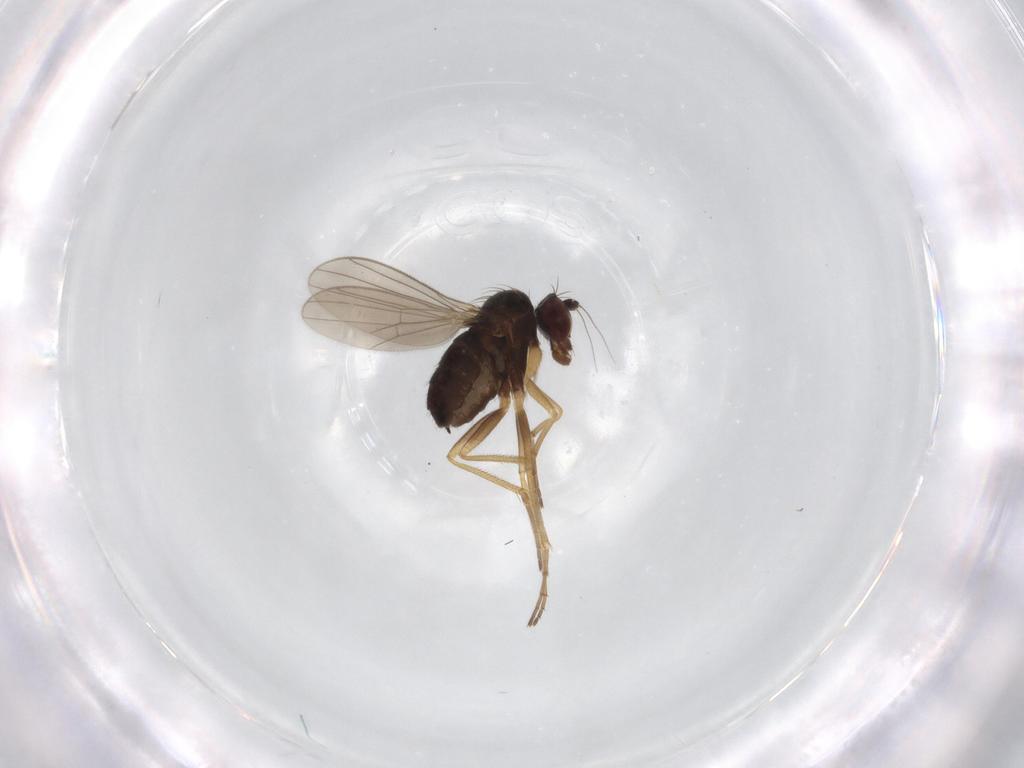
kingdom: Animalia
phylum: Arthropoda
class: Insecta
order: Diptera
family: Dolichopodidae
